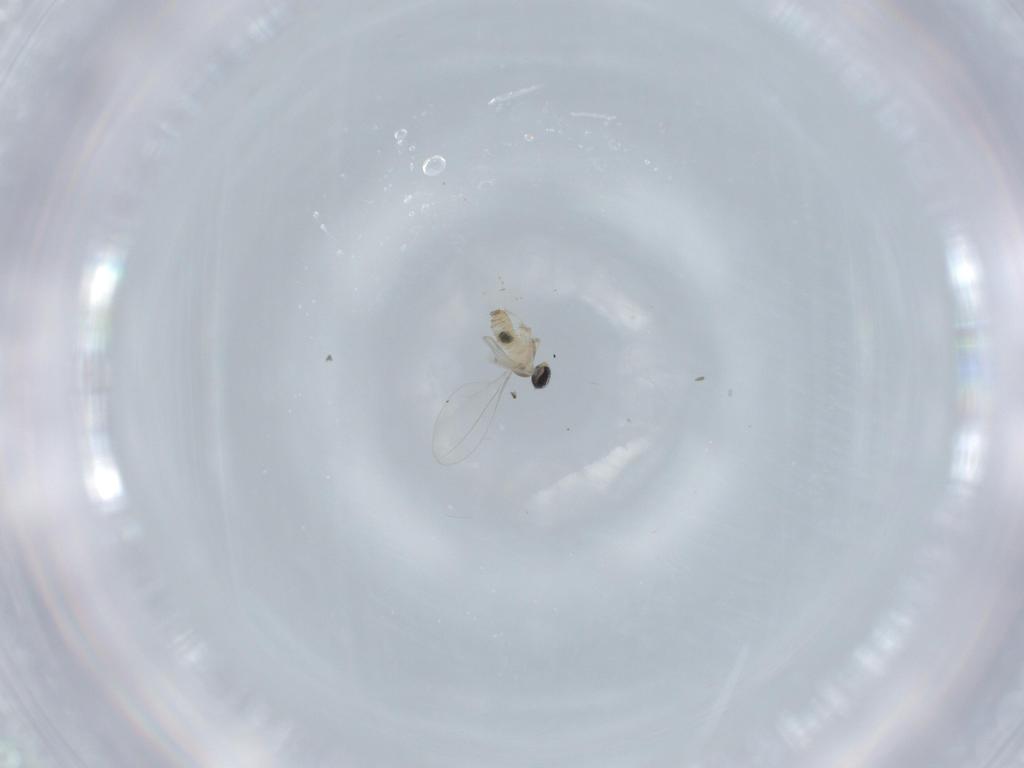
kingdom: Animalia
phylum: Arthropoda
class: Insecta
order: Diptera
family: Cecidomyiidae
